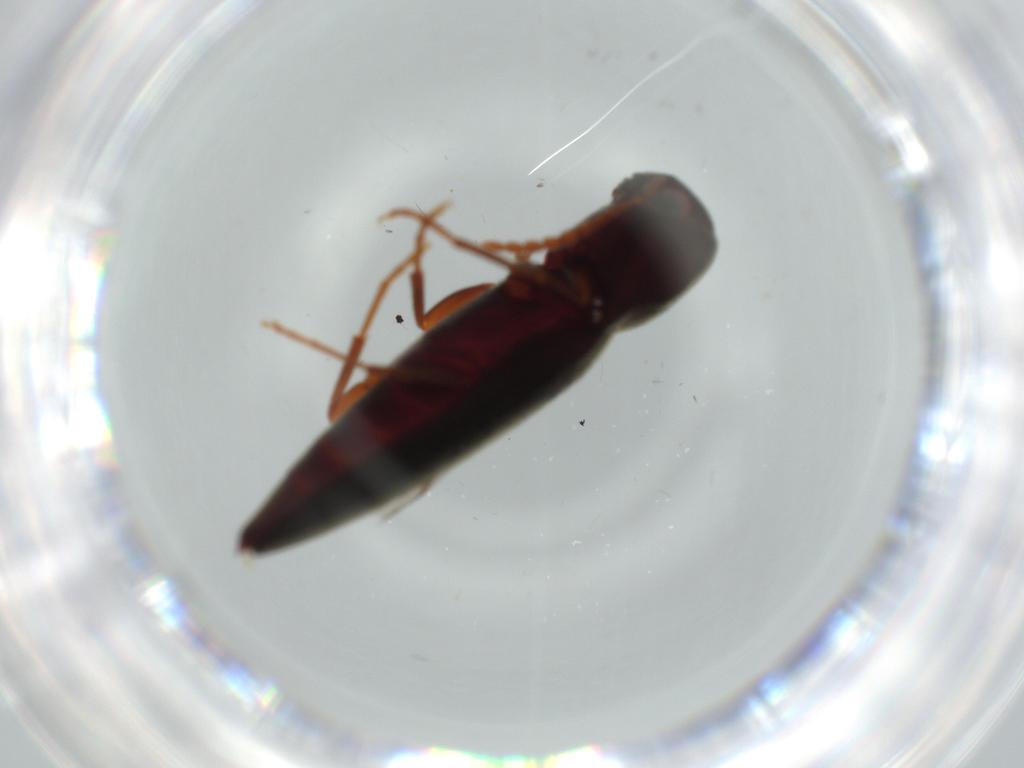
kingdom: Animalia
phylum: Arthropoda
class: Insecta
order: Coleoptera
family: Eucnemidae
